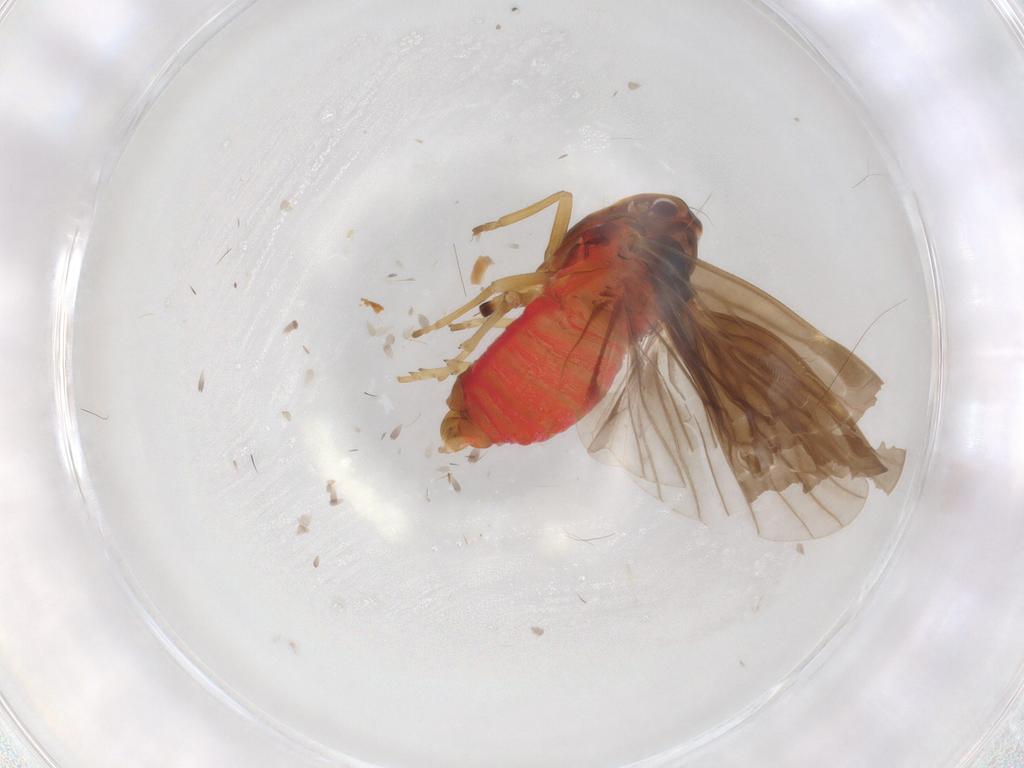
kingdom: Animalia
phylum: Arthropoda
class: Insecta
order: Hemiptera
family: Derbidae
